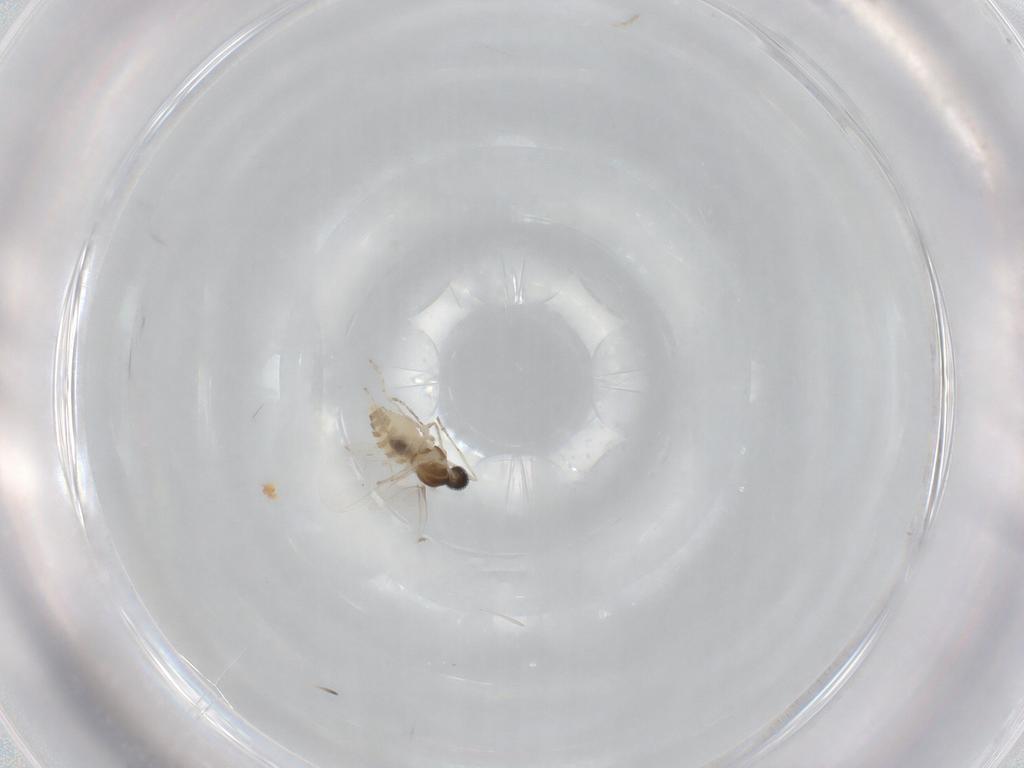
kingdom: Animalia
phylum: Arthropoda
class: Insecta
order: Diptera
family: Cecidomyiidae
